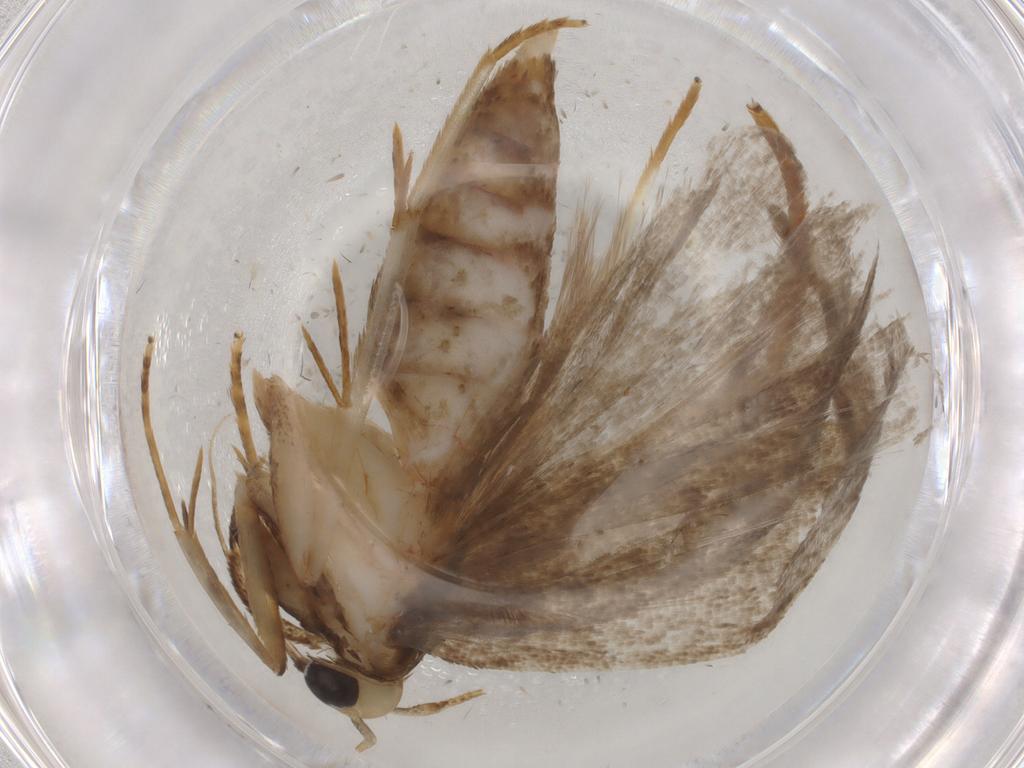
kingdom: Animalia
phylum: Arthropoda
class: Insecta
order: Lepidoptera
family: Autostichidae
